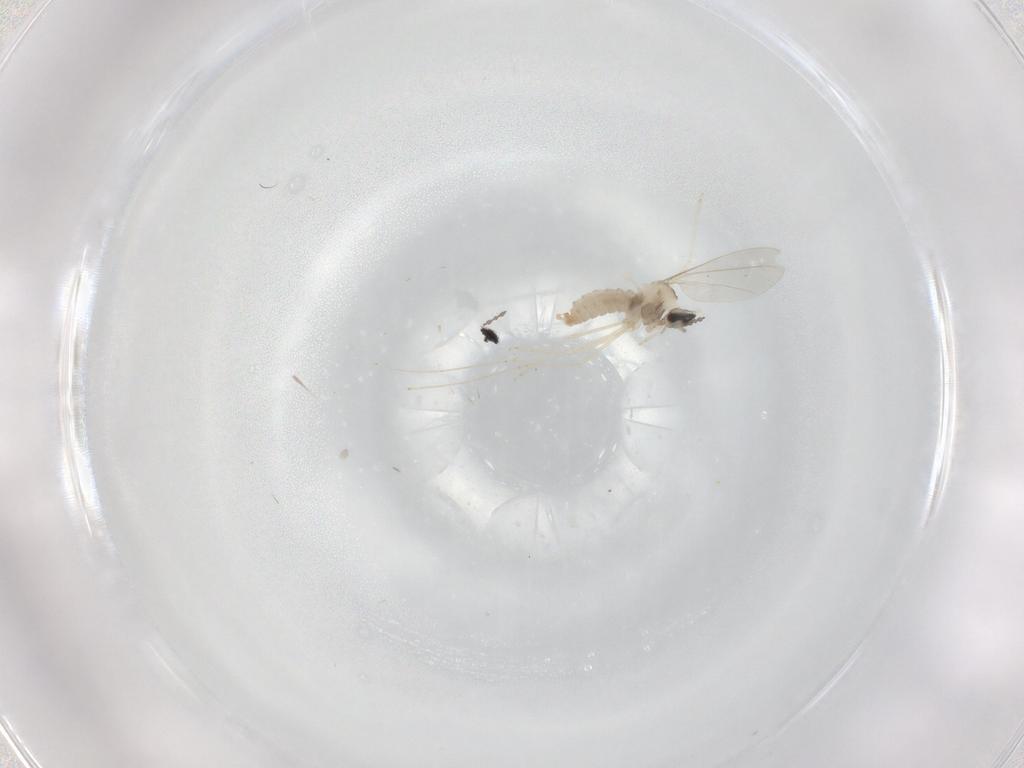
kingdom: Animalia
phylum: Arthropoda
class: Insecta
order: Diptera
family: Cecidomyiidae
